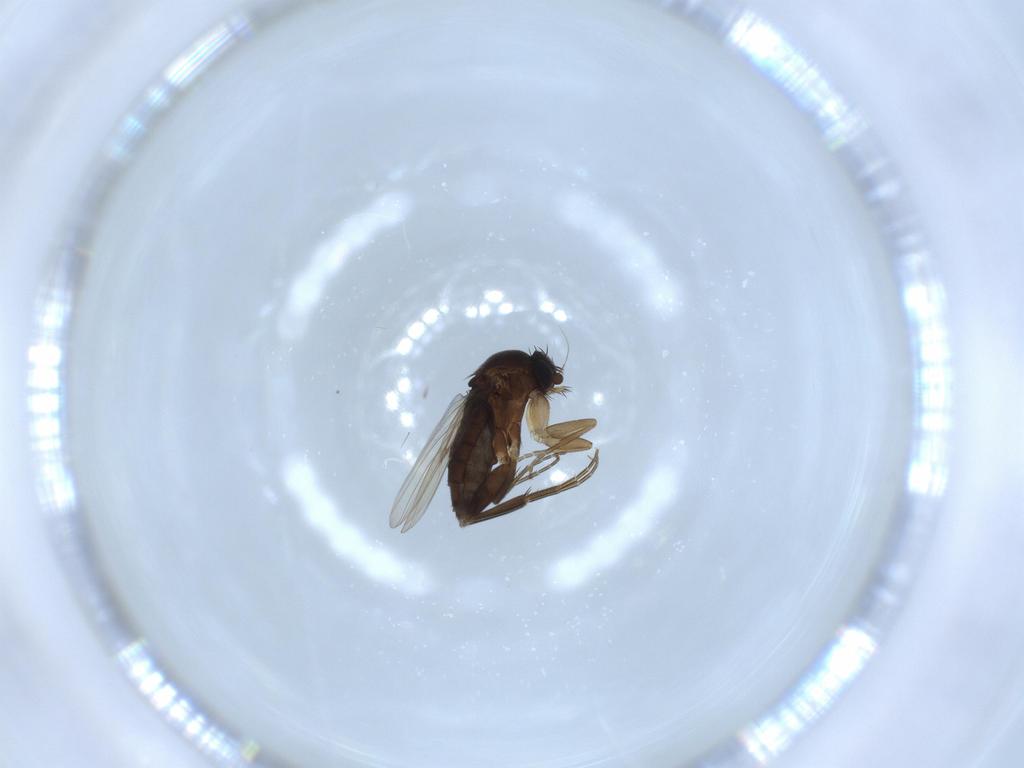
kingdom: Animalia
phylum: Arthropoda
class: Insecta
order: Diptera
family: Phoridae
